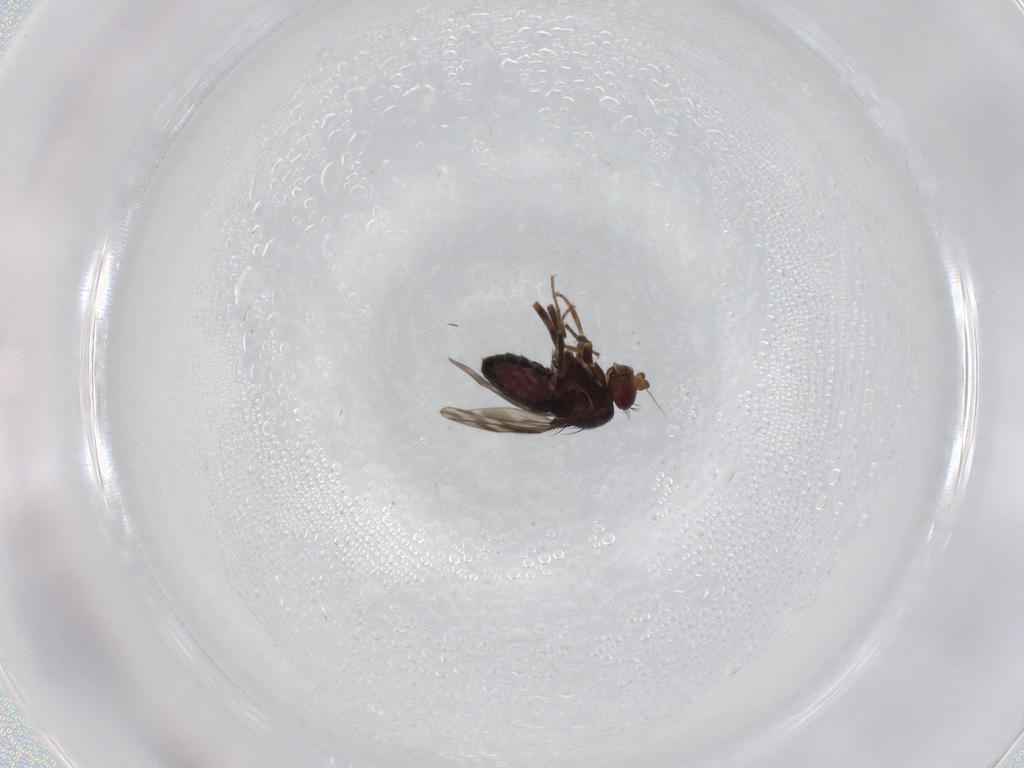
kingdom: Animalia
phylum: Arthropoda
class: Insecta
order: Diptera
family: Sphaeroceridae
